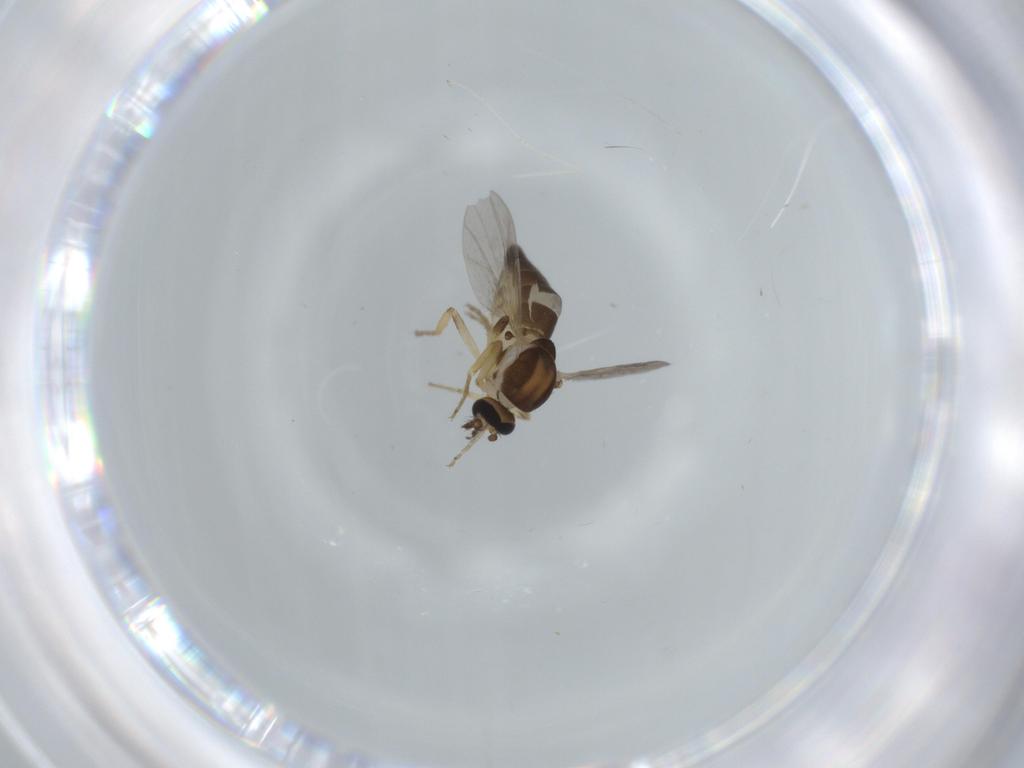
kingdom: Animalia
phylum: Arthropoda
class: Insecta
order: Diptera
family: Ceratopogonidae
